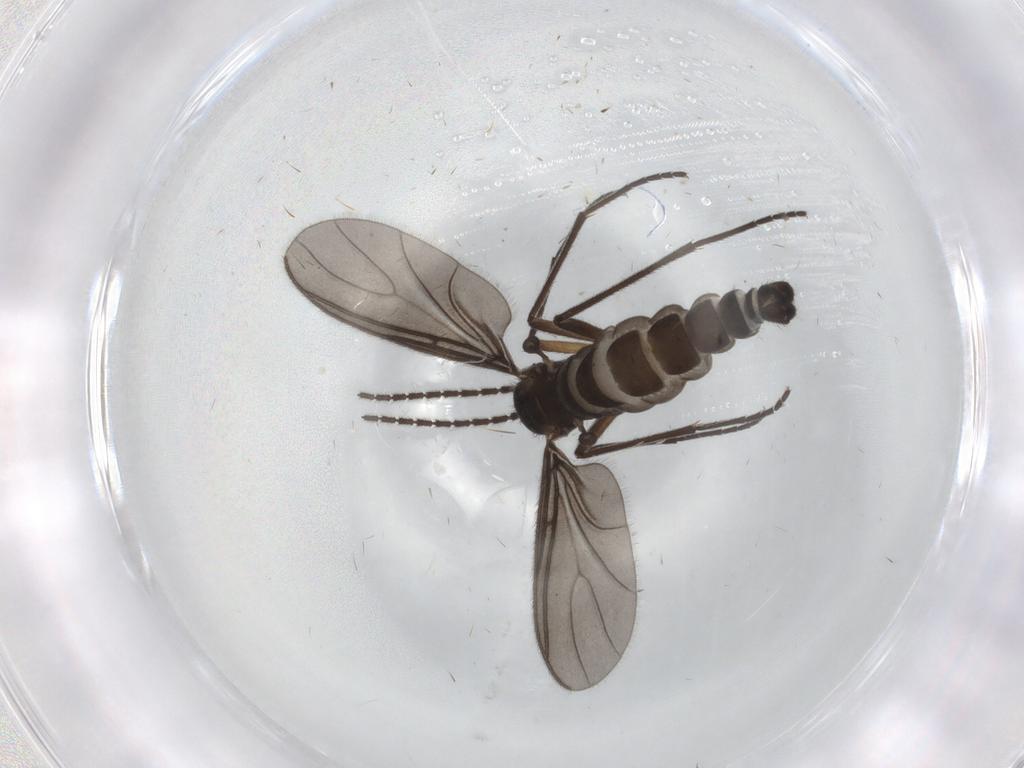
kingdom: Animalia
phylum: Arthropoda
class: Insecta
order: Diptera
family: Sciaridae
